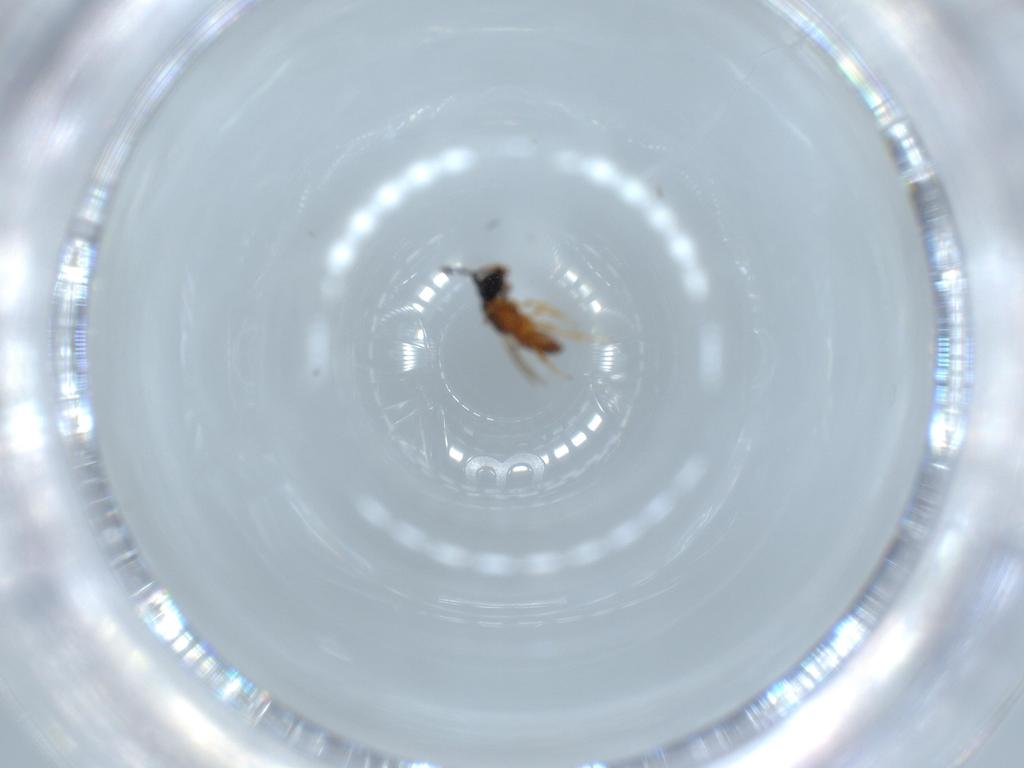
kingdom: Animalia
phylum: Arthropoda
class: Insecta
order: Hymenoptera
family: Scelionidae
